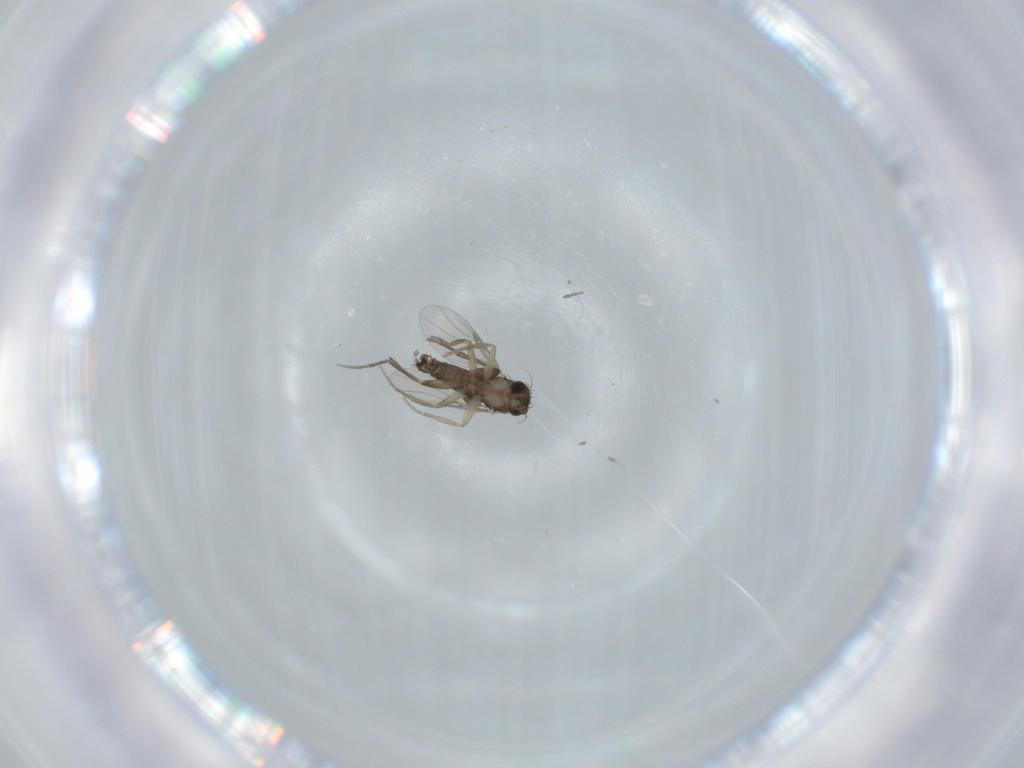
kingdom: Animalia
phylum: Arthropoda
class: Insecta
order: Diptera
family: Phoridae
